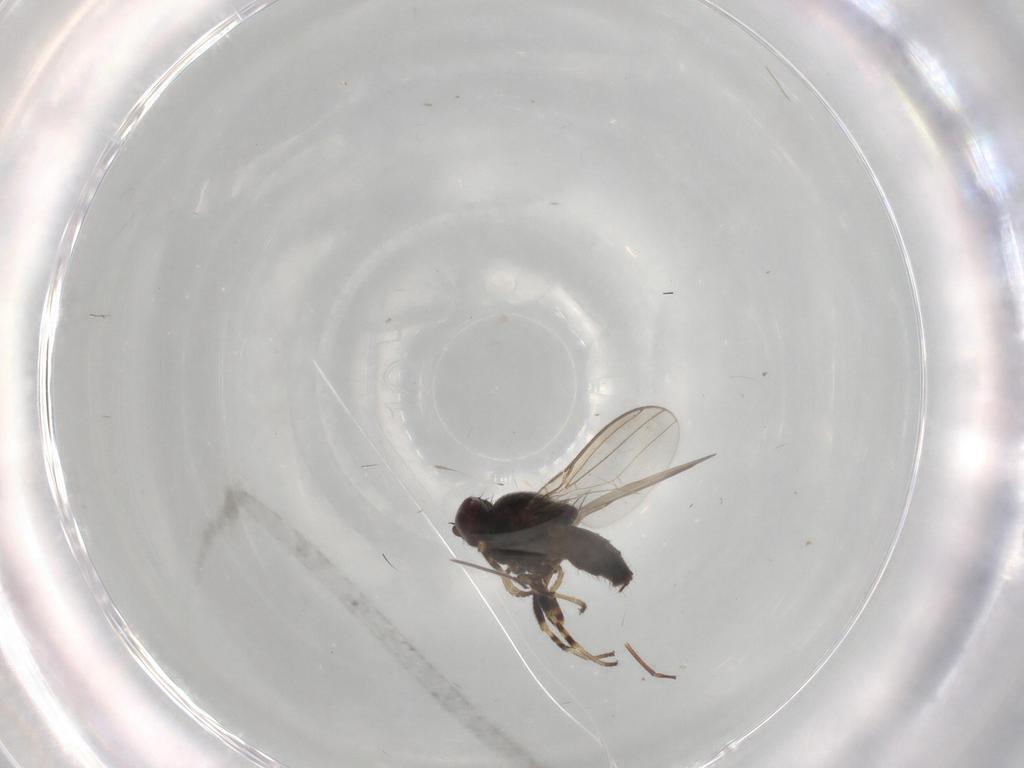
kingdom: Animalia
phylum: Arthropoda
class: Insecta
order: Diptera
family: Chloropidae
